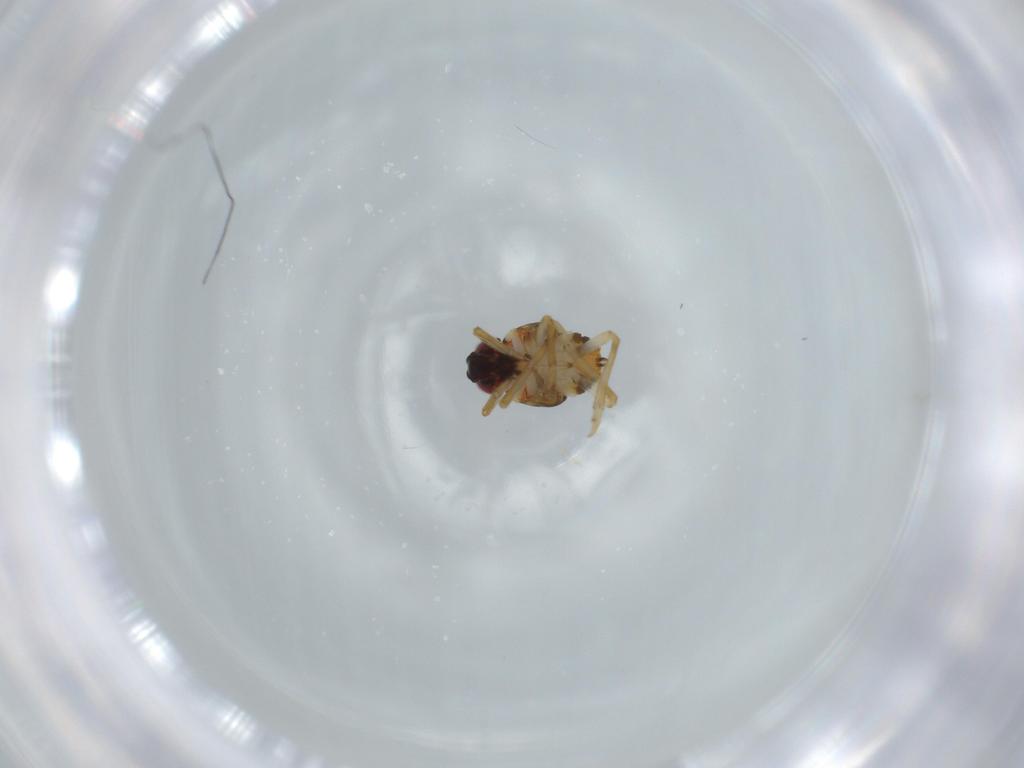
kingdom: Animalia
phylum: Arthropoda
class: Insecta
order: Hemiptera
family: Issidae
